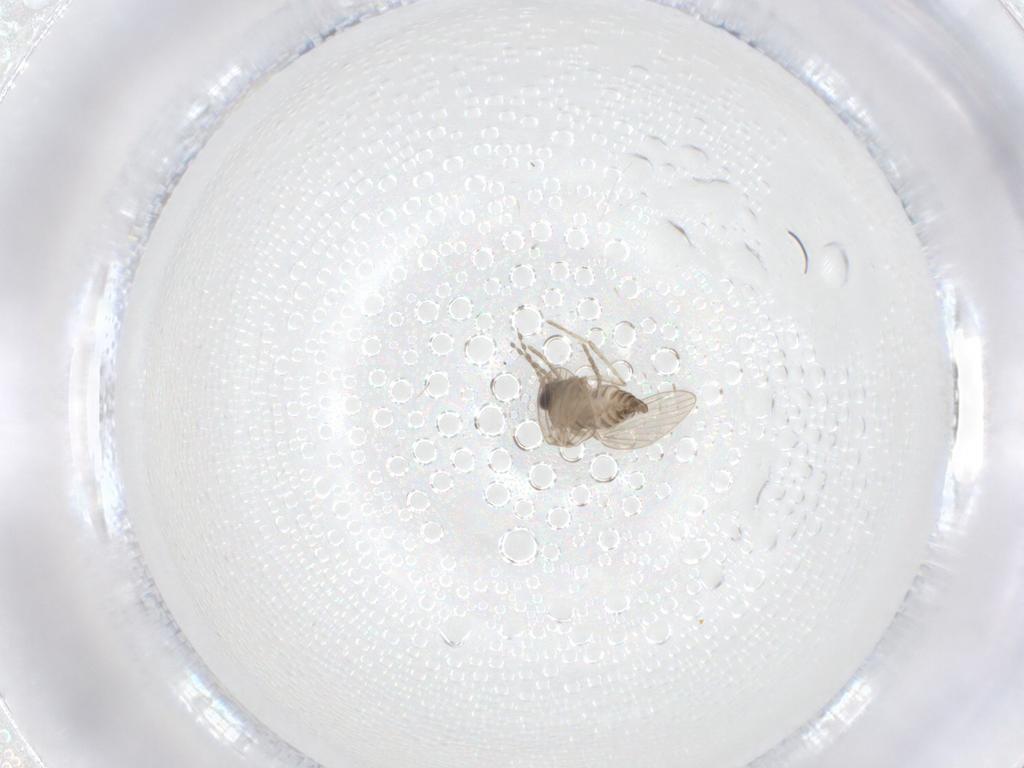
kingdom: Animalia
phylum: Arthropoda
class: Insecta
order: Diptera
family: Psychodidae
